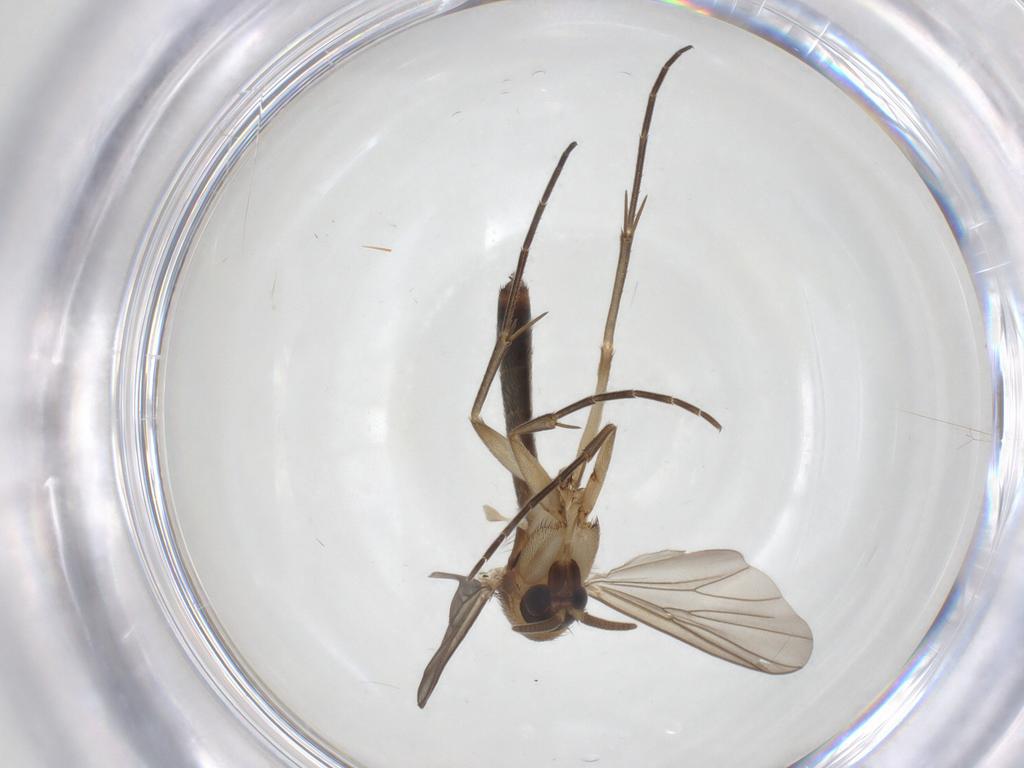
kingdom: Animalia
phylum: Arthropoda
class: Insecta
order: Diptera
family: Mycetophilidae
